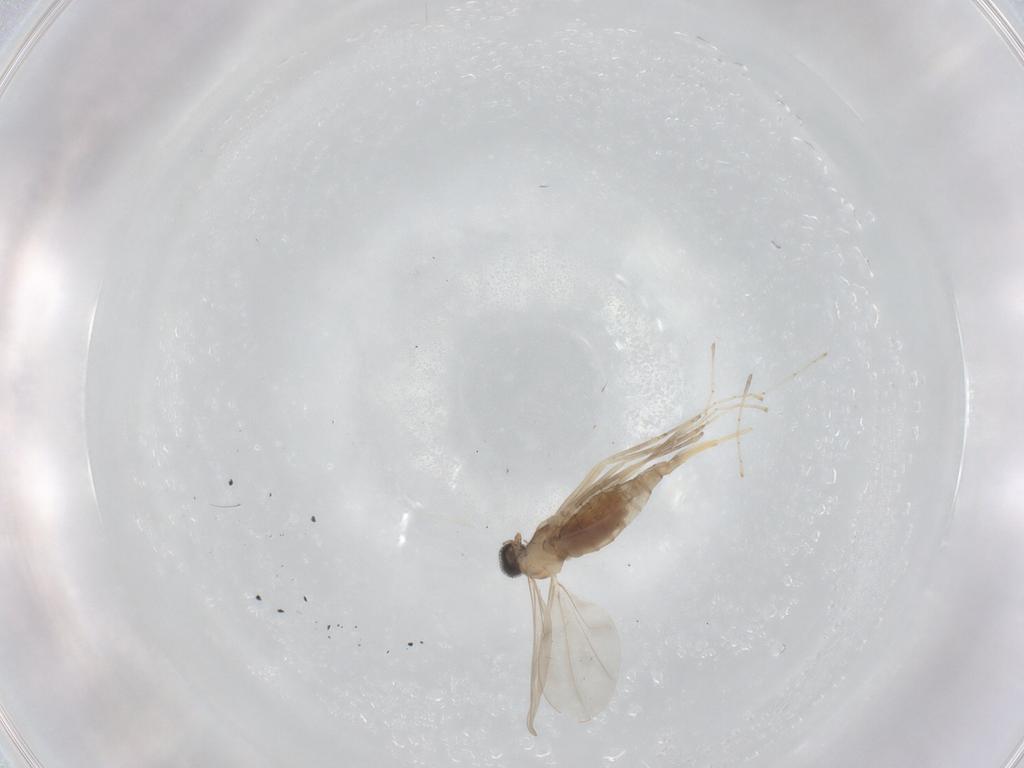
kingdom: Animalia
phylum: Arthropoda
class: Insecta
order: Diptera
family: Cecidomyiidae
